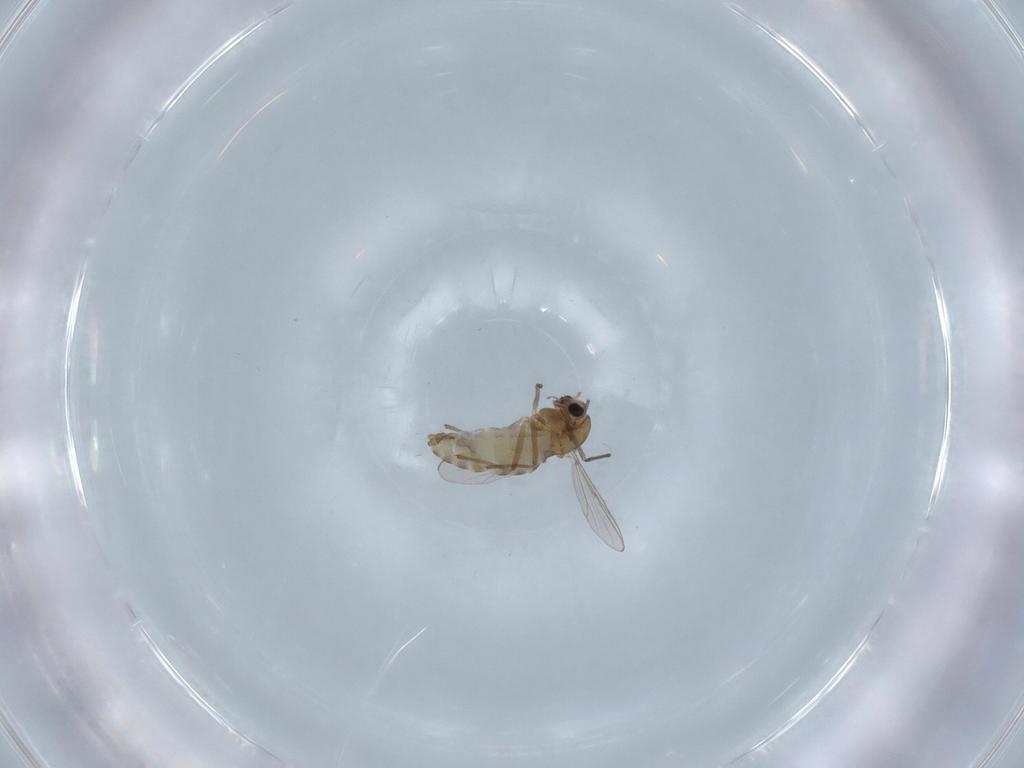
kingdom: Animalia
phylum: Arthropoda
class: Insecta
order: Diptera
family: Chironomidae
